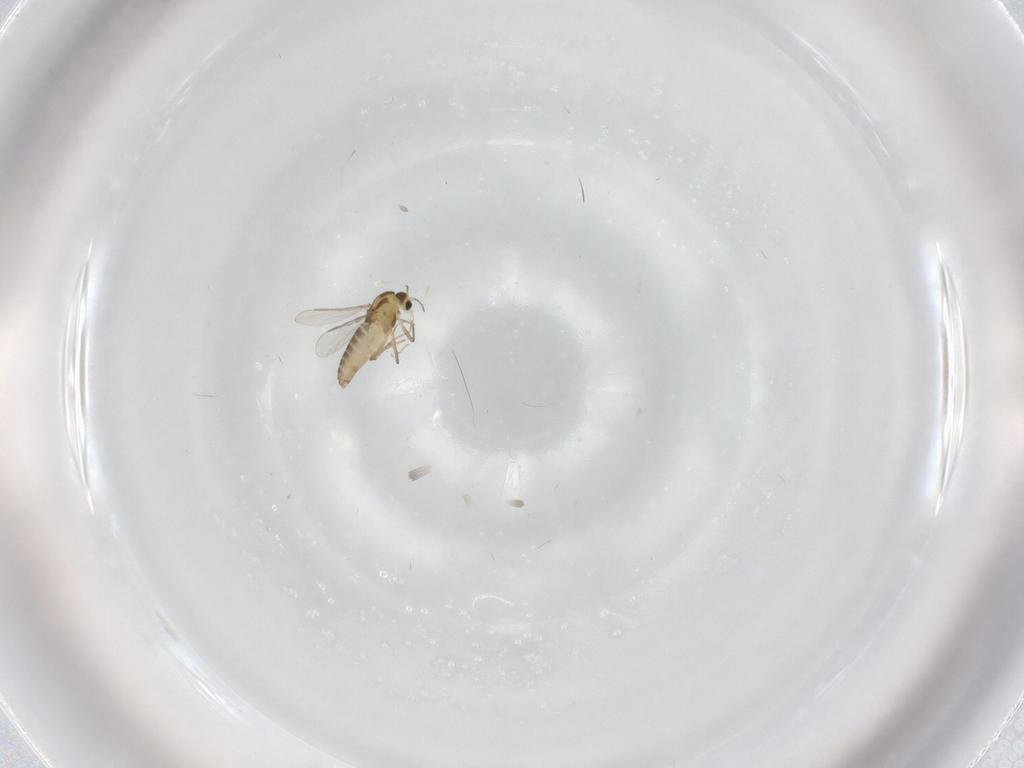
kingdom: Animalia
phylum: Arthropoda
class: Insecta
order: Diptera
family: Chironomidae
